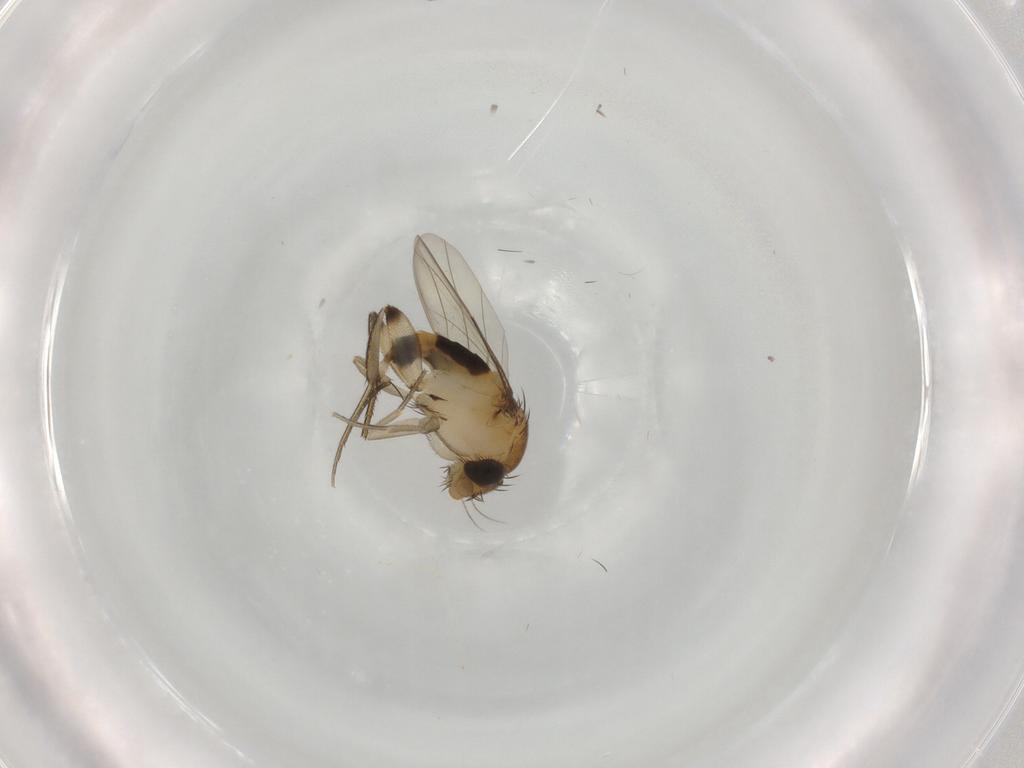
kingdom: Animalia
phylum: Arthropoda
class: Insecta
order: Diptera
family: Phoridae
